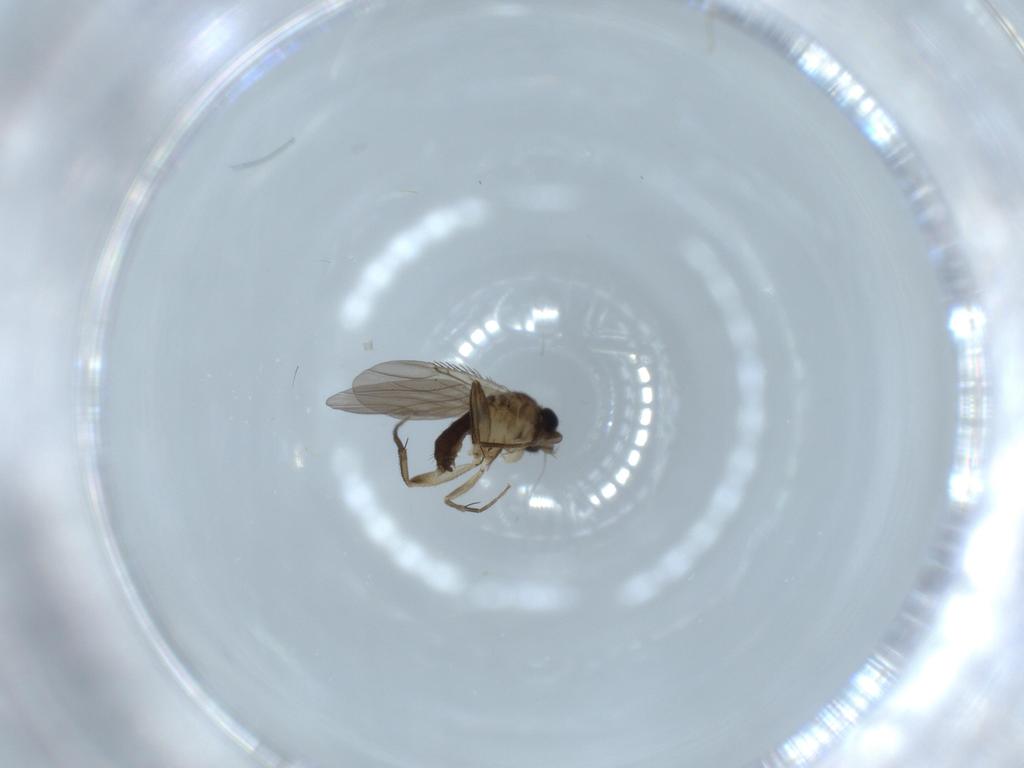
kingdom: Animalia
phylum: Arthropoda
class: Insecta
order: Diptera
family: Phoridae
